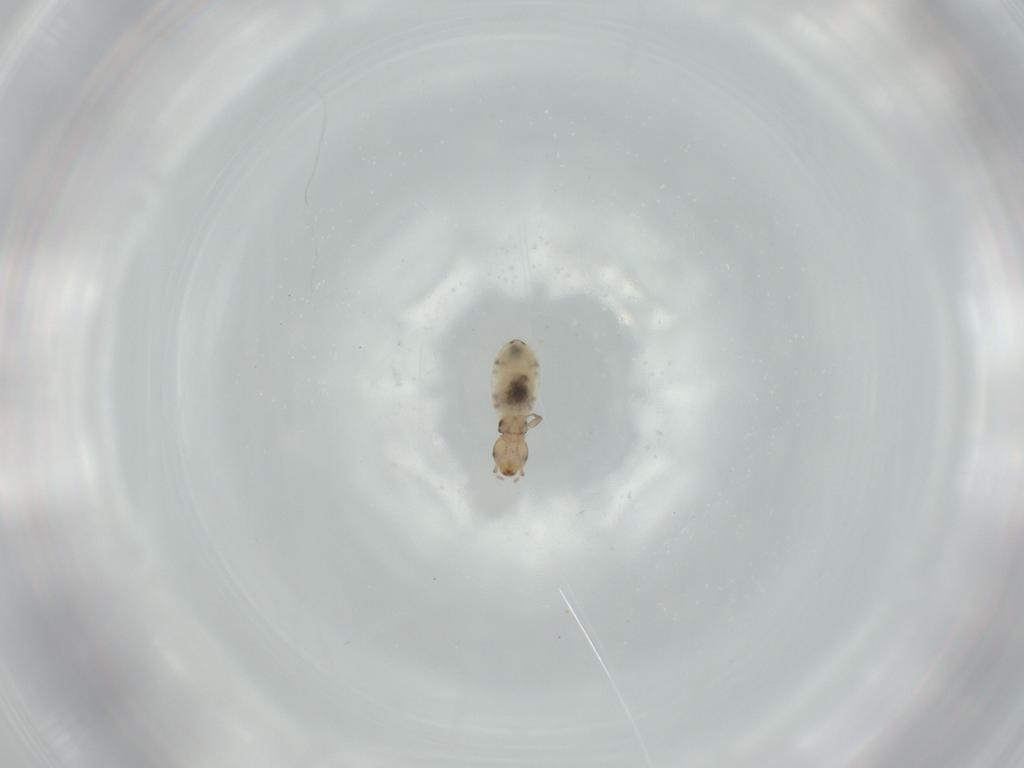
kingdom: Animalia
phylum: Arthropoda
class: Insecta
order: Psocodea
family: Liposcelididae
